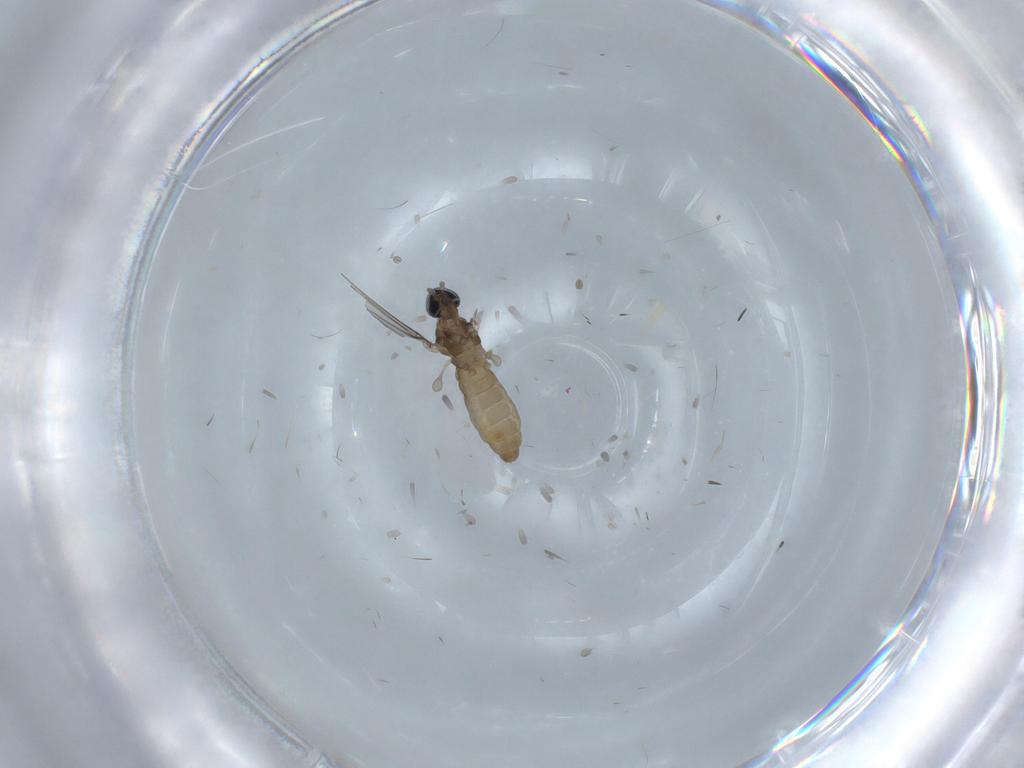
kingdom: Animalia
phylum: Arthropoda
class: Insecta
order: Diptera
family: Cecidomyiidae
